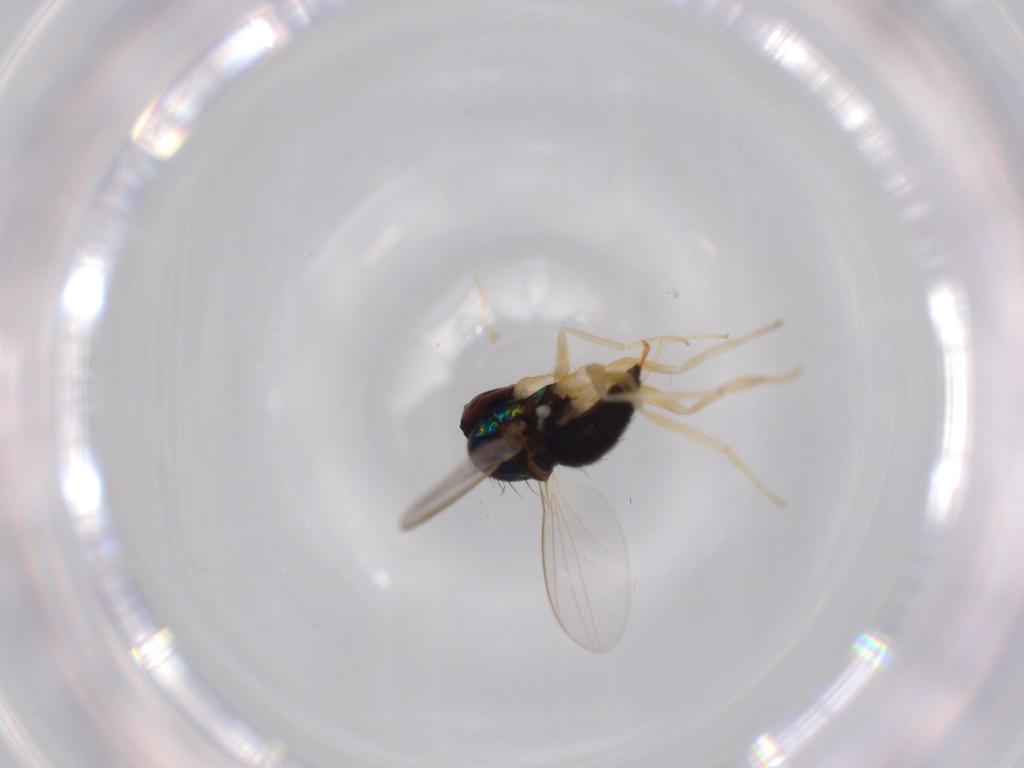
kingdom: Animalia
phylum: Arthropoda
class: Insecta
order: Diptera
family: Dolichopodidae
